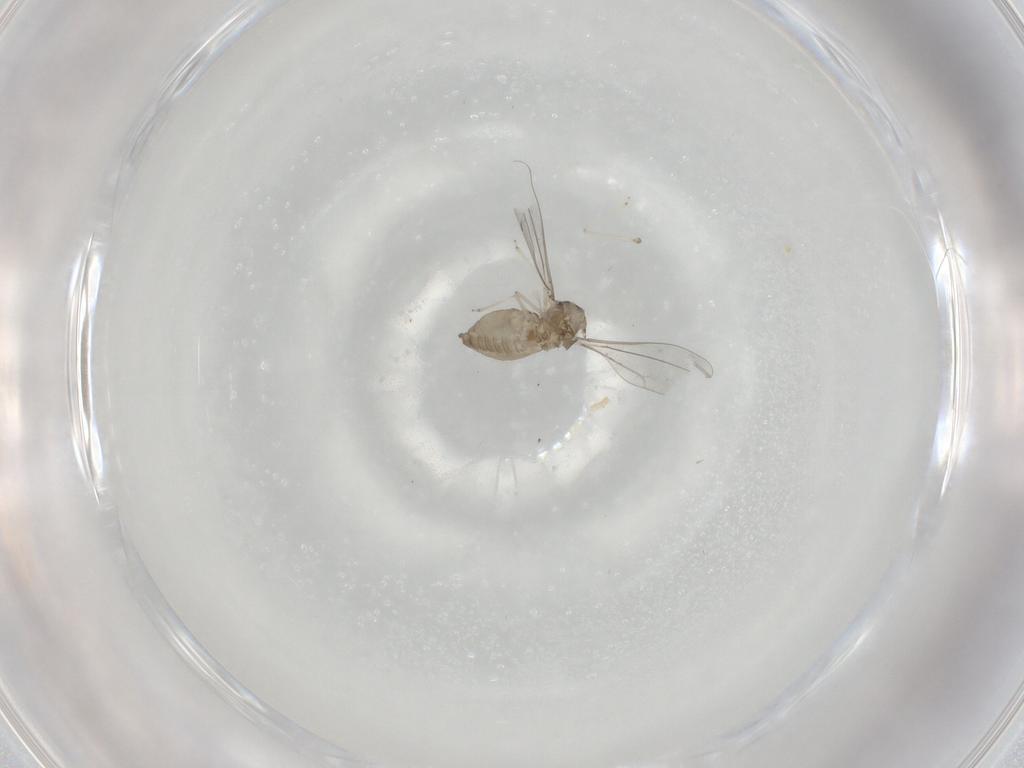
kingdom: Animalia
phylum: Arthropoda
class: Insecta
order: Diptera
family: Cecidomyiidae
